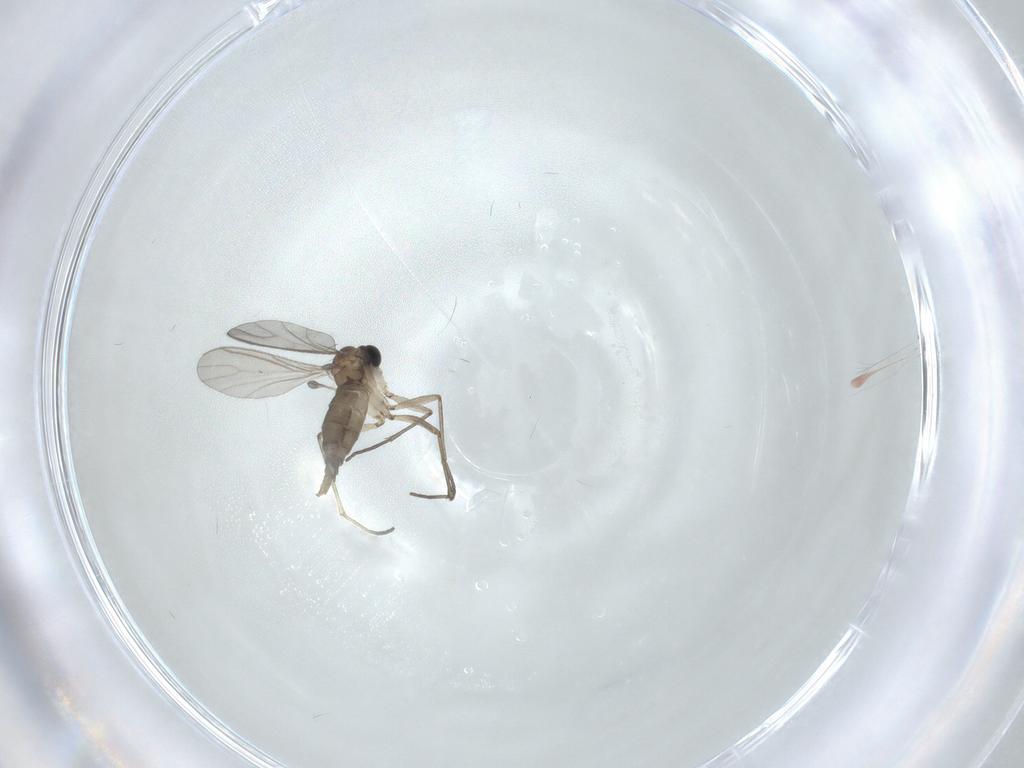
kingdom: Animalia
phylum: Arthropoda
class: Insecta
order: Diptera
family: Sciaridae
